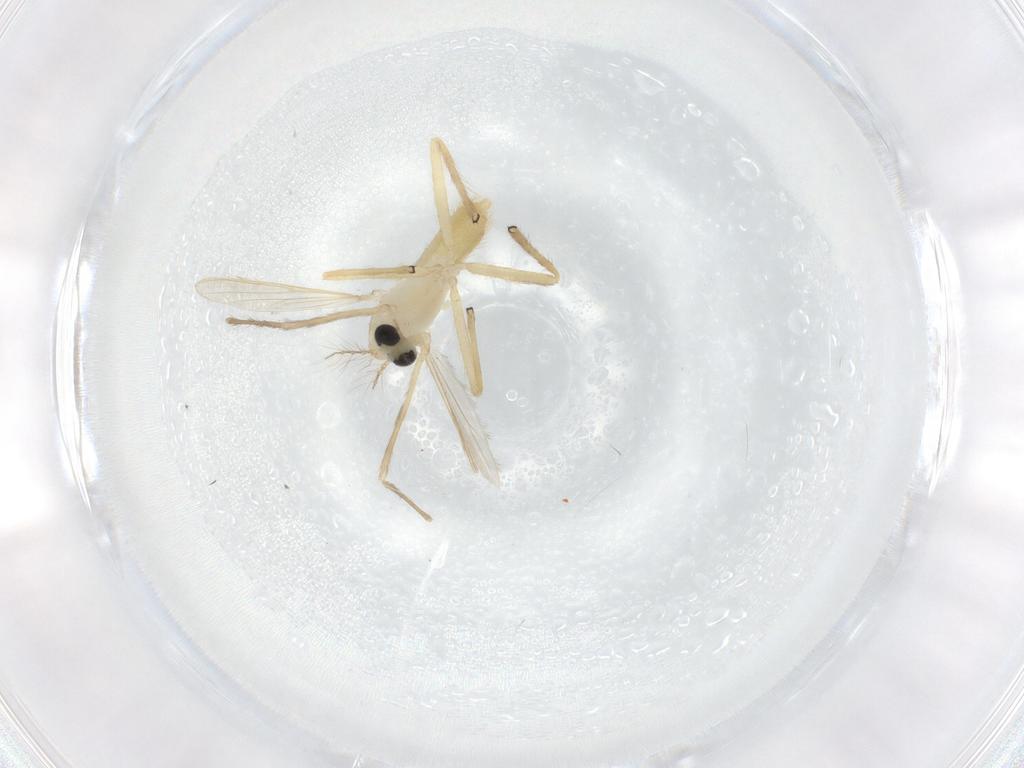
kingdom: Animalia
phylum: Arthropoda
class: Insecta
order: Diptera
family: Chironomidae
